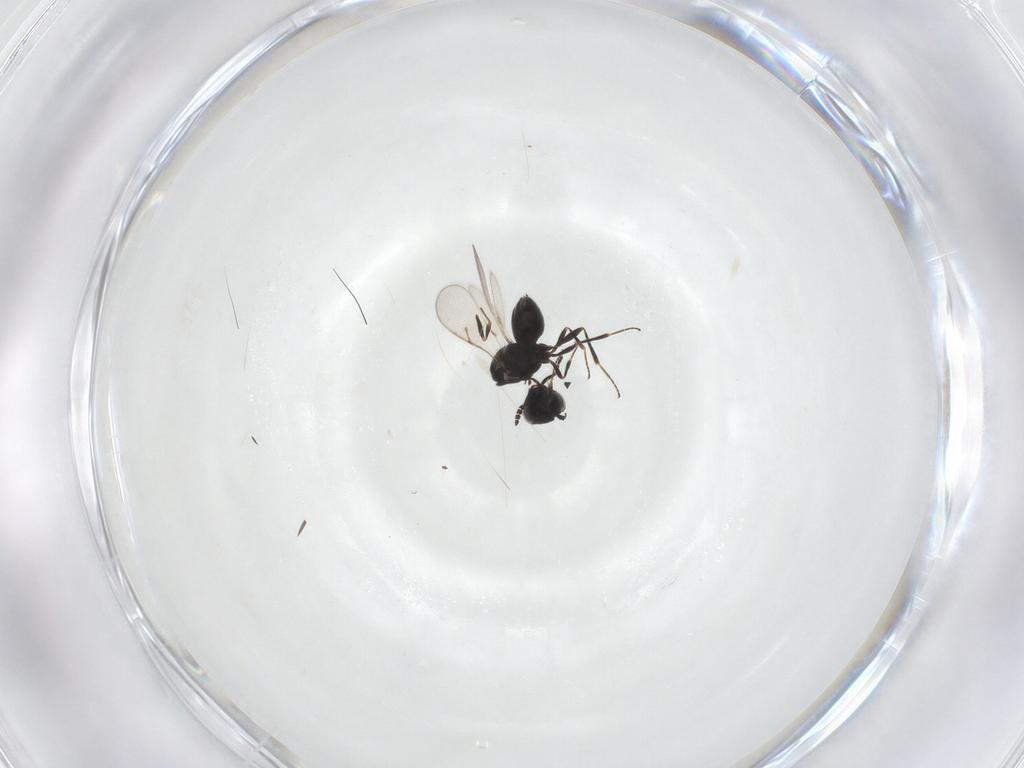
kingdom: Animalia
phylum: Arthropoda
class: Insecta
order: Hymenoptera
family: Scelionidae
